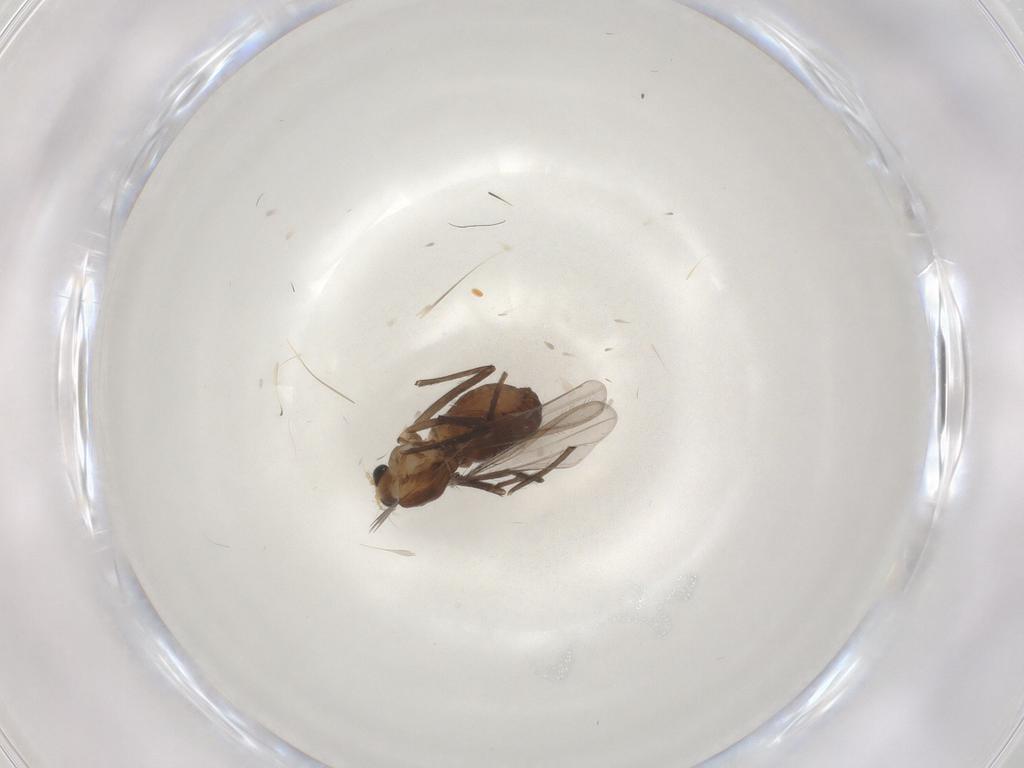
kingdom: Animalia
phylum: Arthropoda
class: Insecta
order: Diptera
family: Chironomidae
